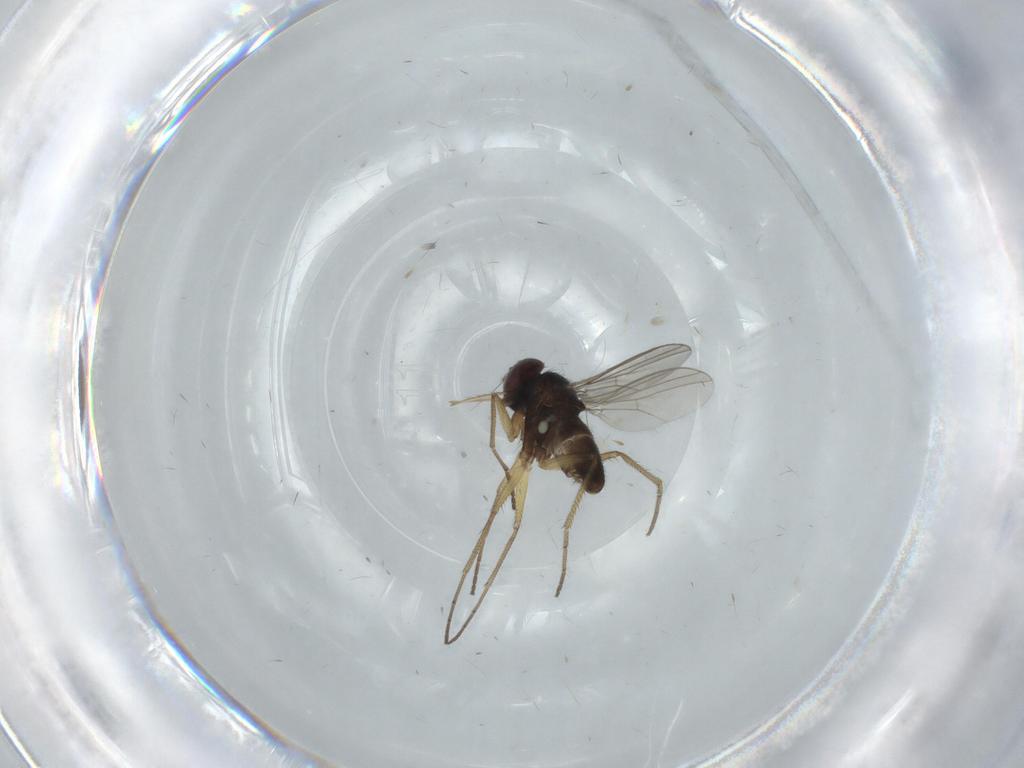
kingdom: Animalia
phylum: Arthropoda
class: Insecta
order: Diptera
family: Dolichopodidae
